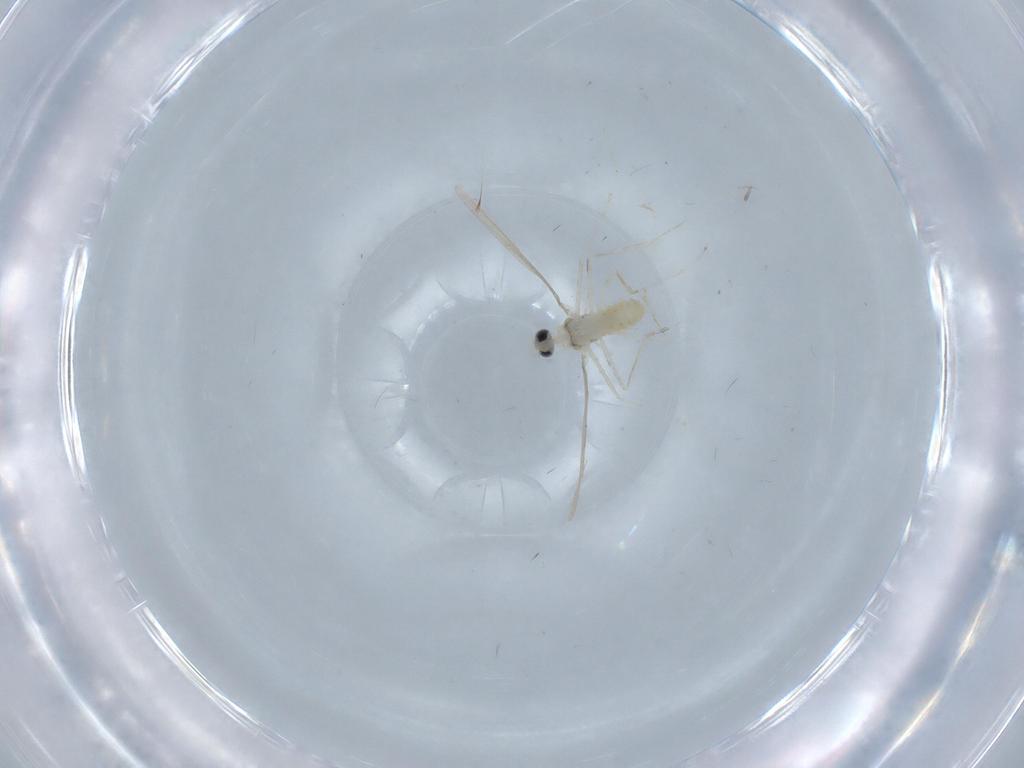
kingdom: Animalia
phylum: Arthropoda
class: Insecta
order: Diptera
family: Cecidomyiidae
